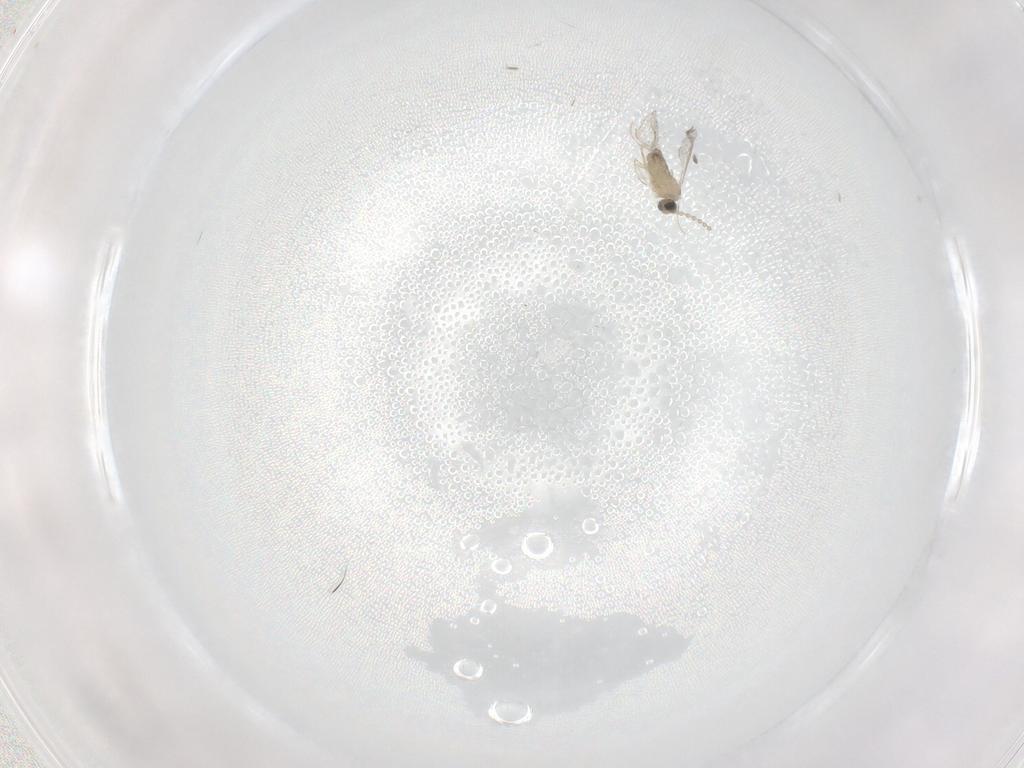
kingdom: Animalia
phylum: Arthropoda
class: Insecta
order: Diptera
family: Cecidomyiidae
